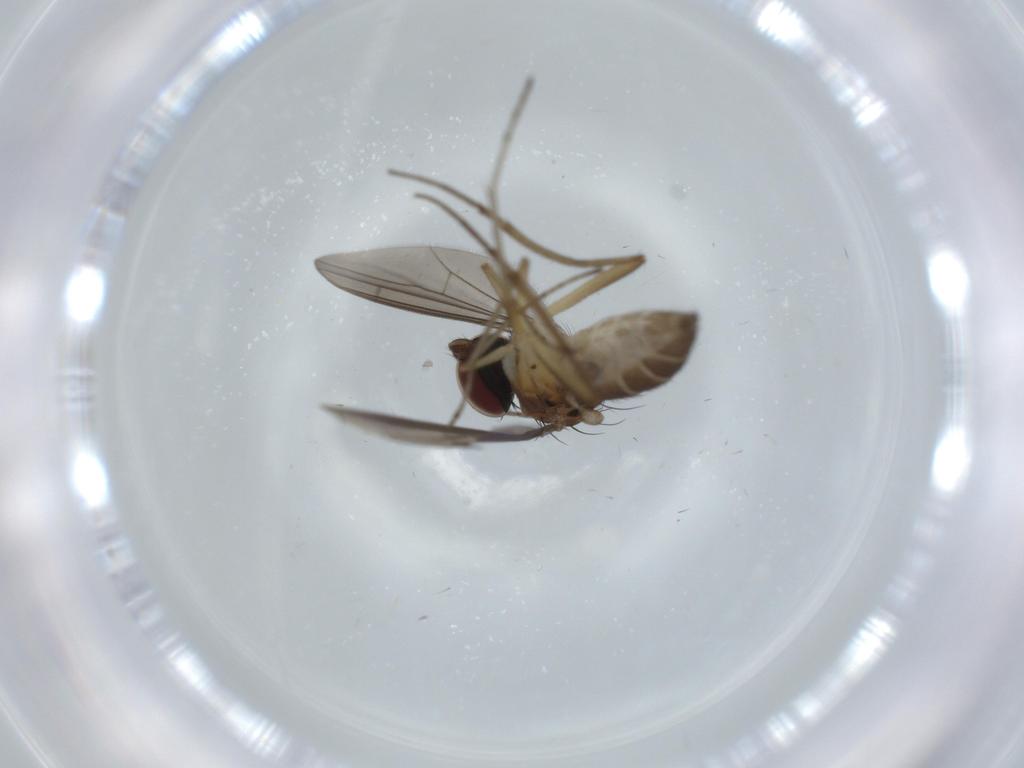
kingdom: Animalia
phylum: Arthropoda
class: Insecta
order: Diptera
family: Dolichopodidae
